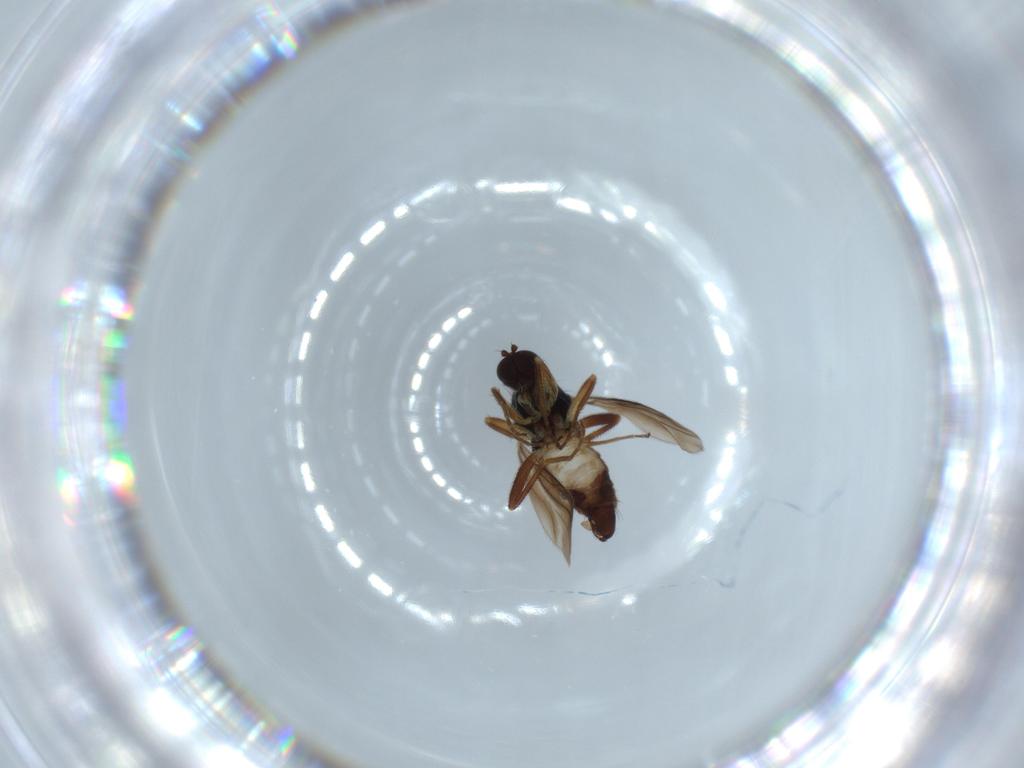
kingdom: Animalia
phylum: Arthropoda
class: Insecta
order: Diptera
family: Hybotidae
